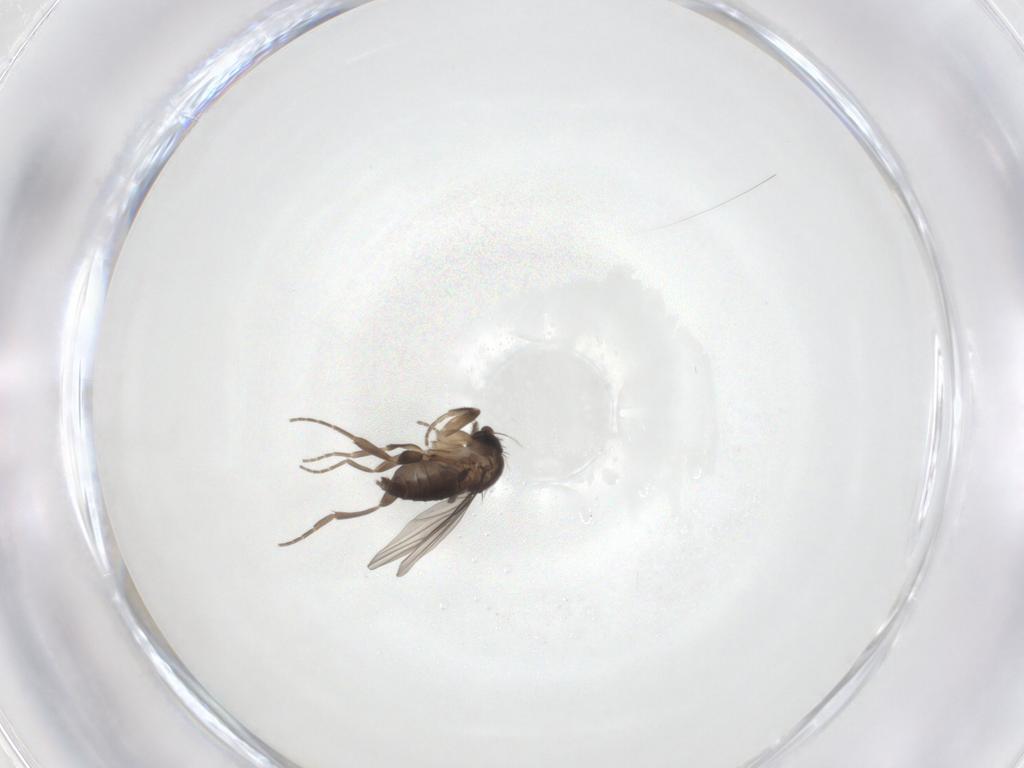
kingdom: Animalia
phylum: Arthropoda
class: Insecta
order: Diptera
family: Phoridae
